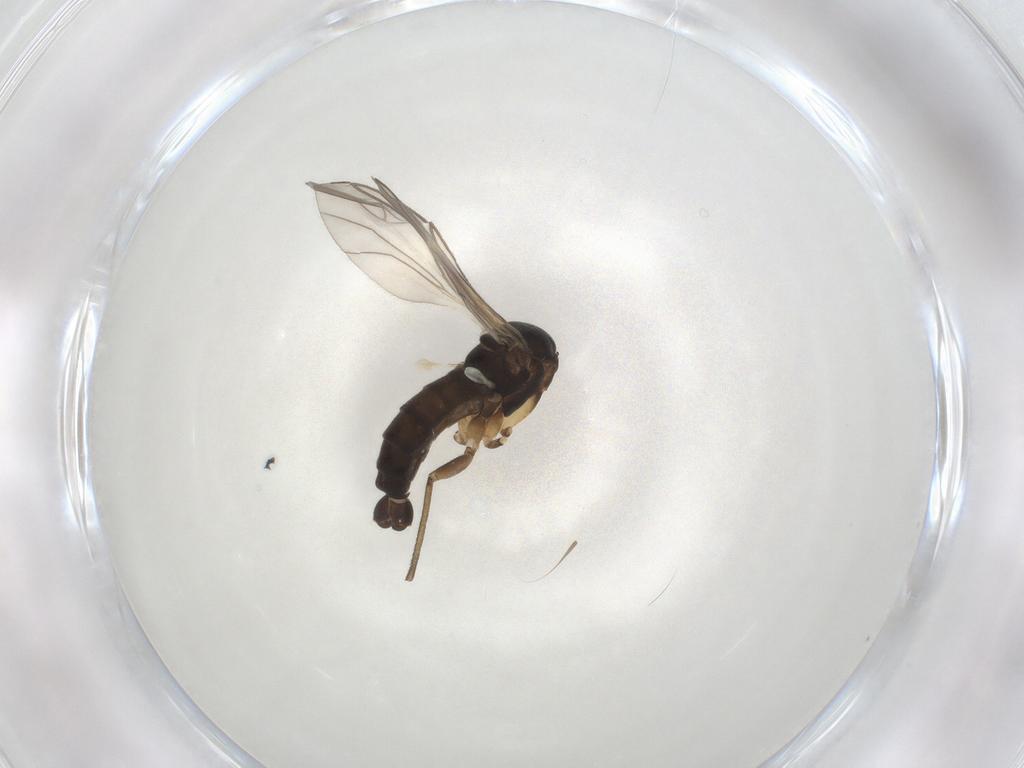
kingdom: Animalia
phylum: Arthropoda
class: Insecta
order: Diptera
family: Sciaridae
